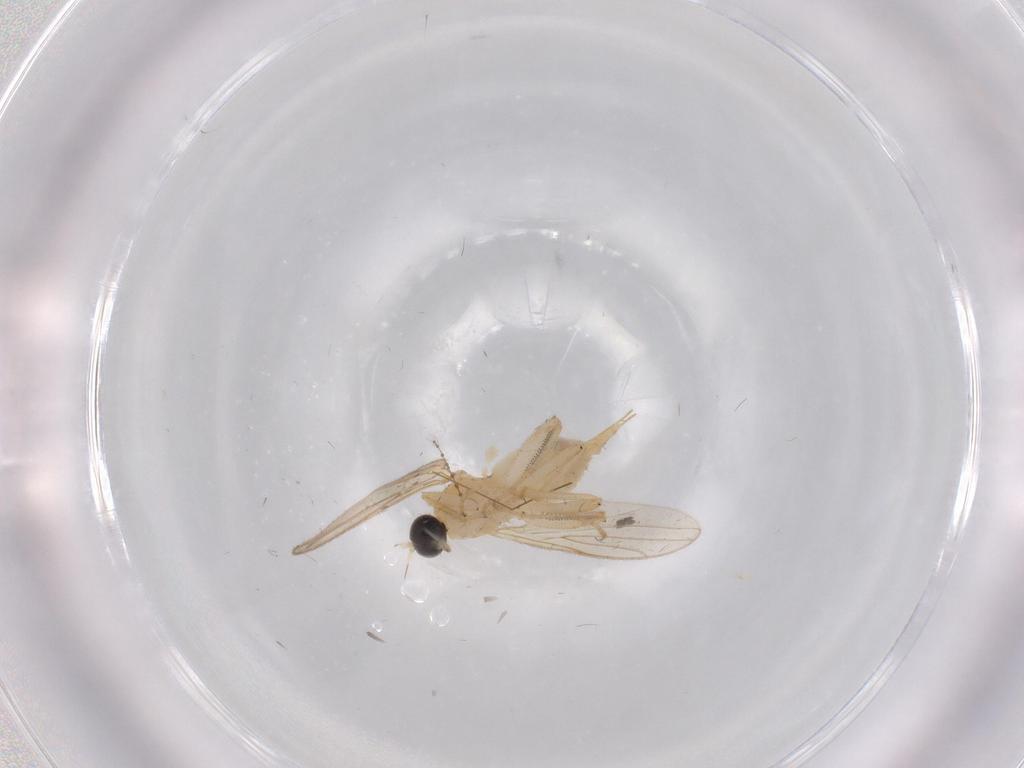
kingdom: Animalia
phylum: Arthropoda
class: Insecta
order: Diptera
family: Cecidomyiidae
